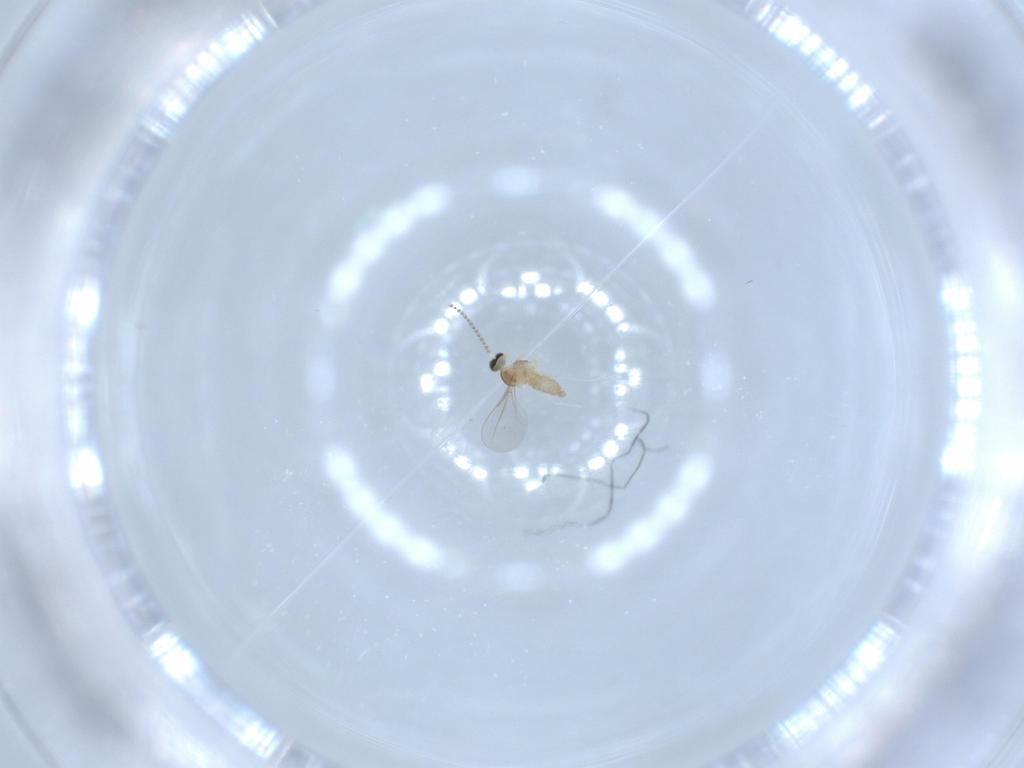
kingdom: Animalia
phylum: Arthropoda
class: Insecta
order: Diptera
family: Cecidomyiidae
